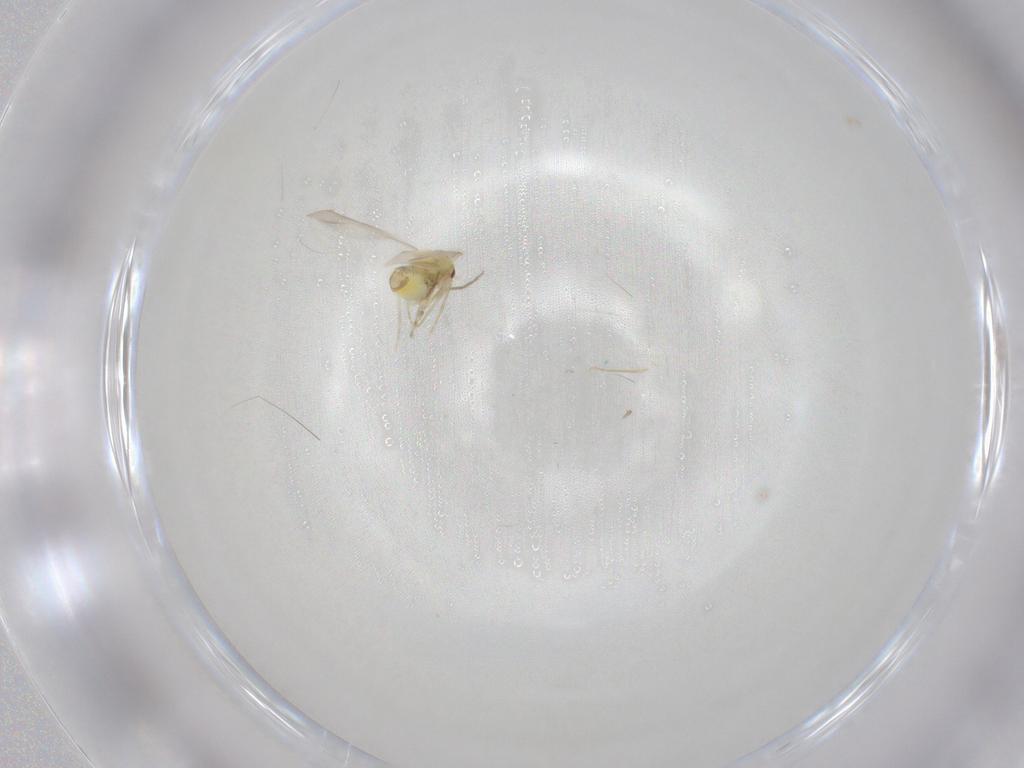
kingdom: Animalia
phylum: Arthropoda
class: Insecta
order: Hemiptera
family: Aleyrodidae
